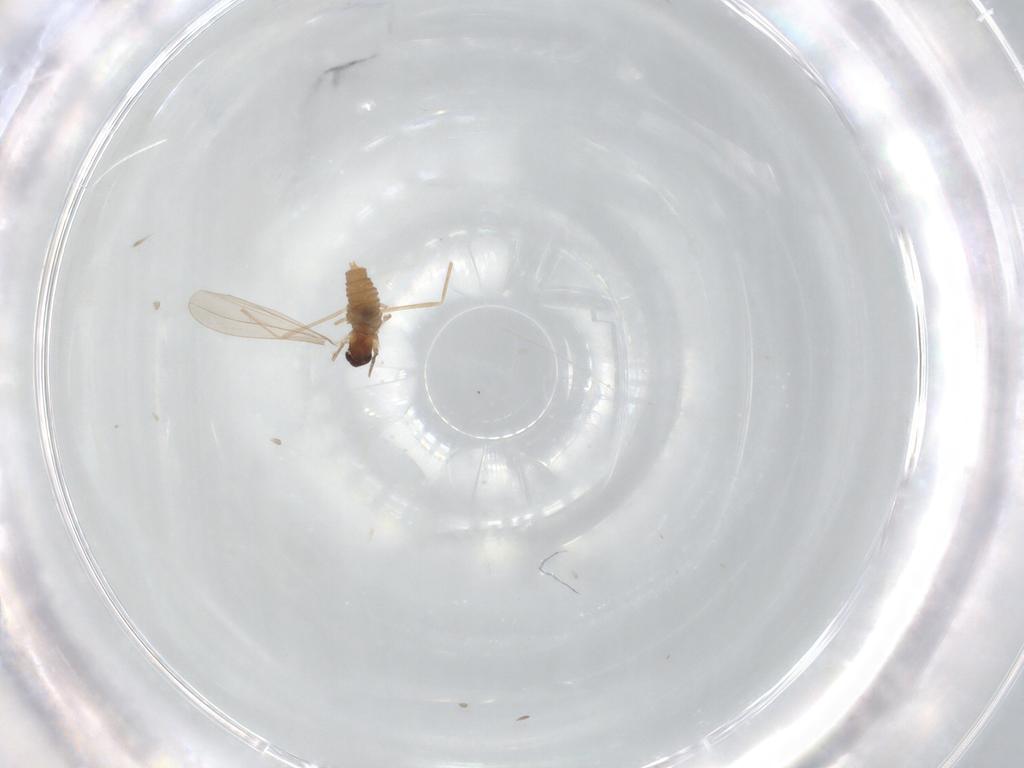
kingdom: Animalia
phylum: Arthropoda
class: Insecta
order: Diptera
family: Cecidomyiidae
